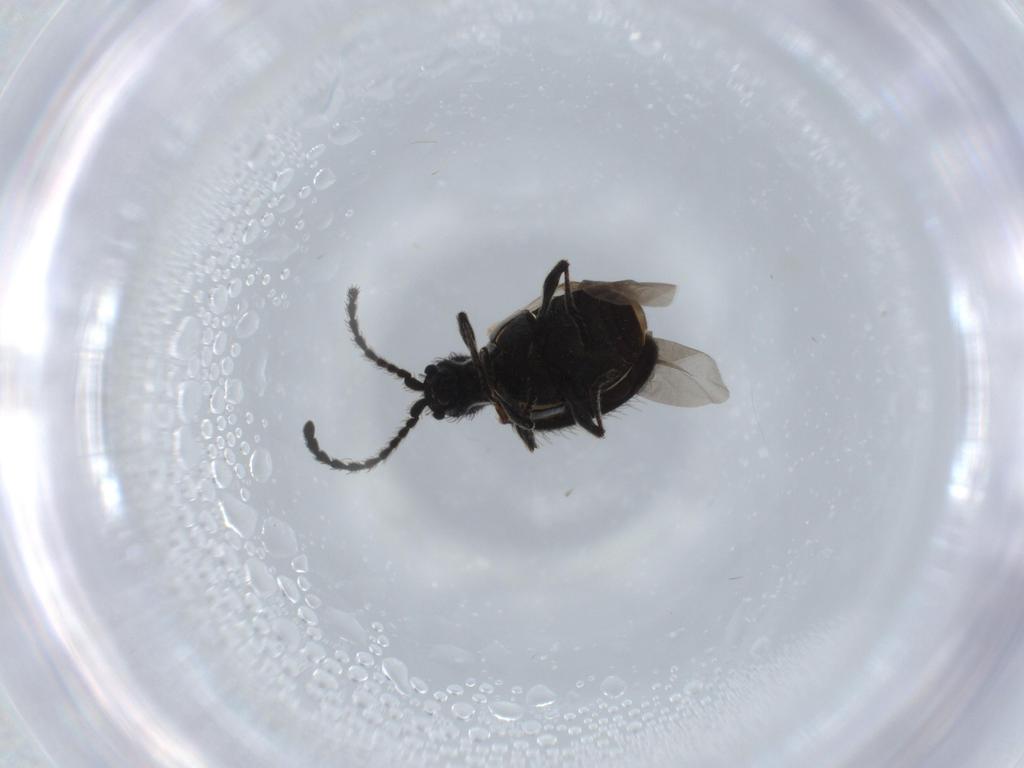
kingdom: Animalia
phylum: Arthropoda
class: Insecta
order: Coleoptera
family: Ptinidae
